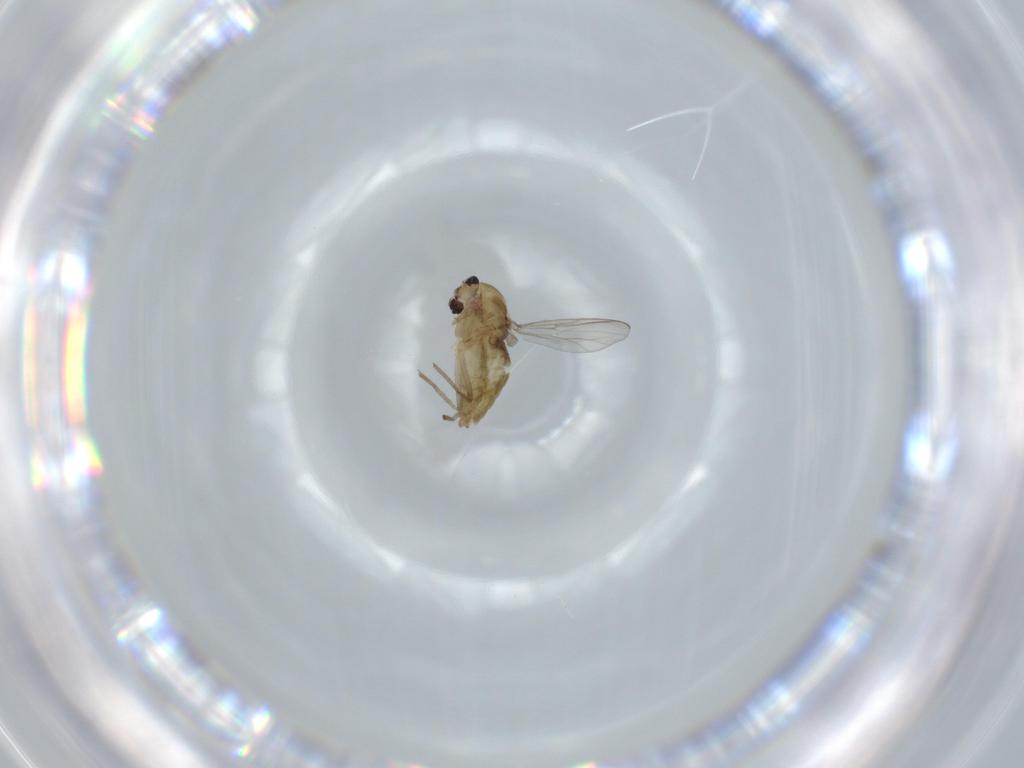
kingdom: Animalia
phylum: Arthropoda
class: Insecta
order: Diptera
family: Chironomidae
